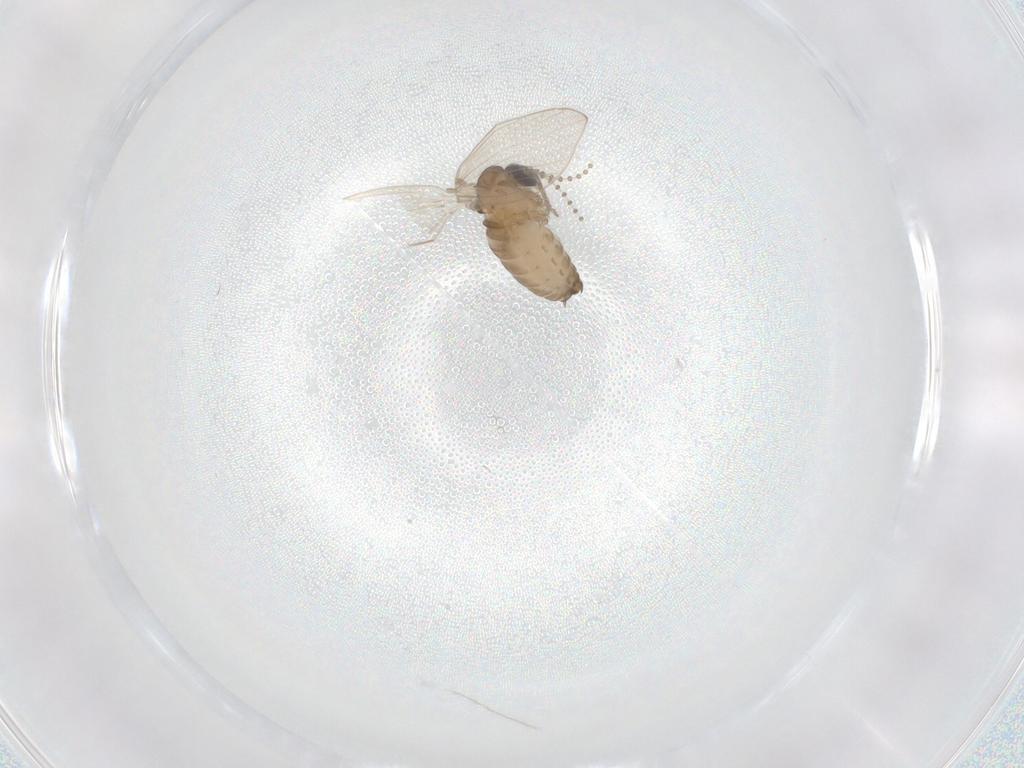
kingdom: Animalia
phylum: Arthropoda
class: Insecta
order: Diptera
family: Psychodidae
